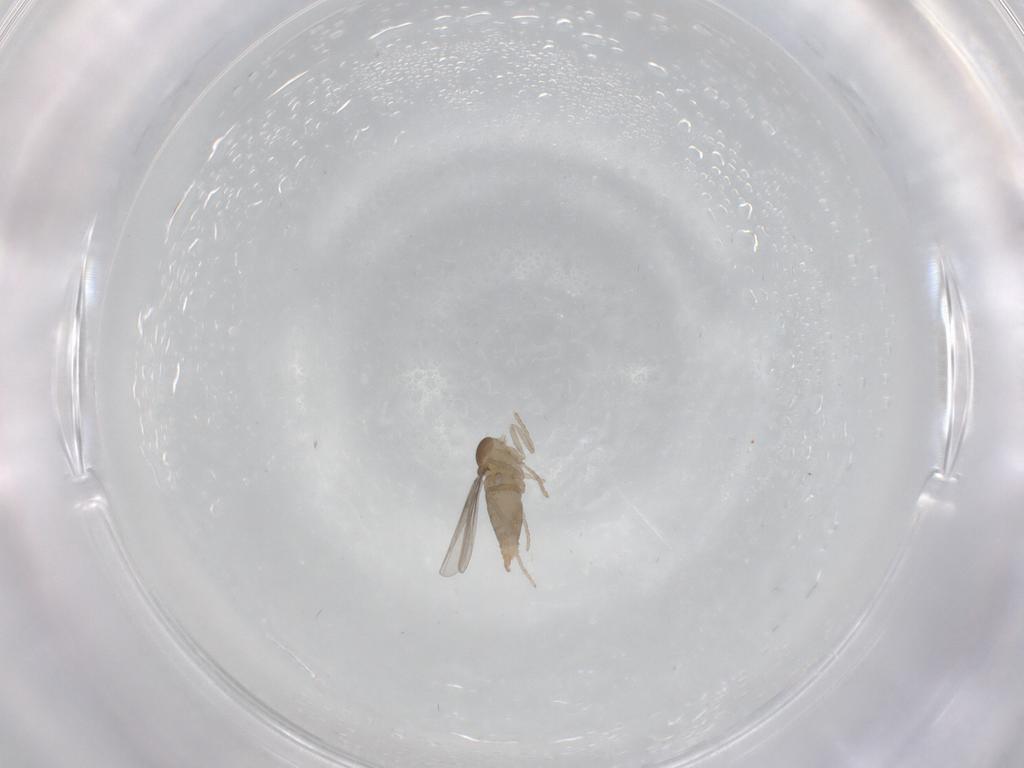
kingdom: Animalia
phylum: Arthropoda
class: Insecta
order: Diptera
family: Cecidomyiidae
